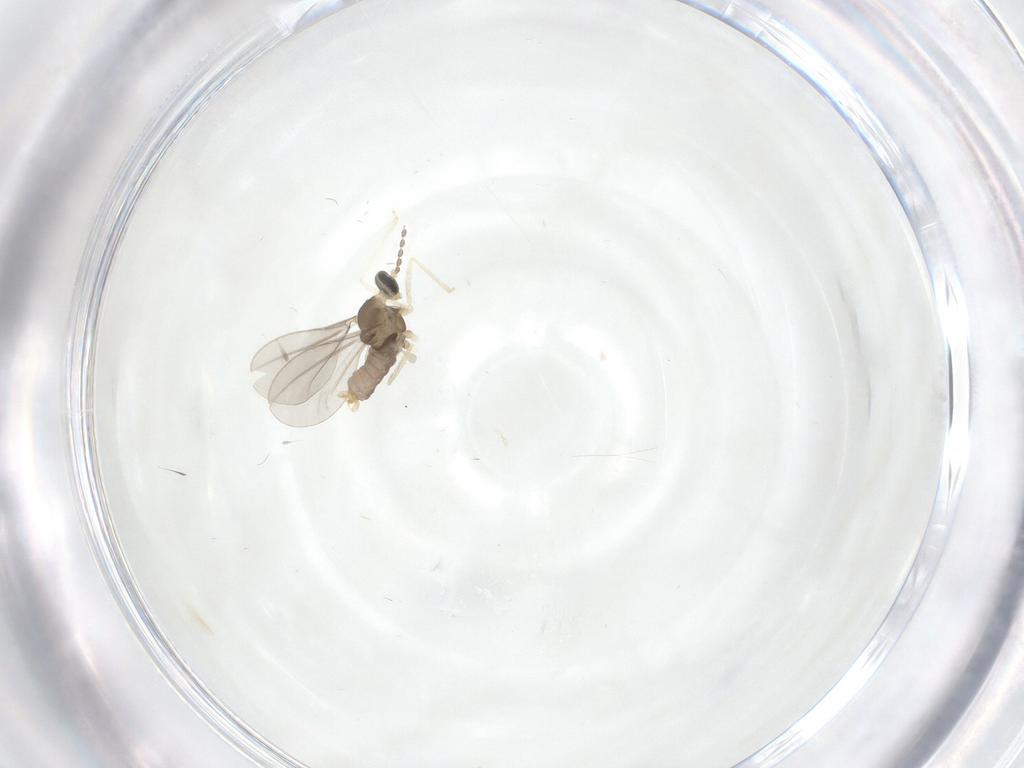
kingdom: Animalia
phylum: Arthropoda
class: Insecta
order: Diptera
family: Cecidomyiidae
